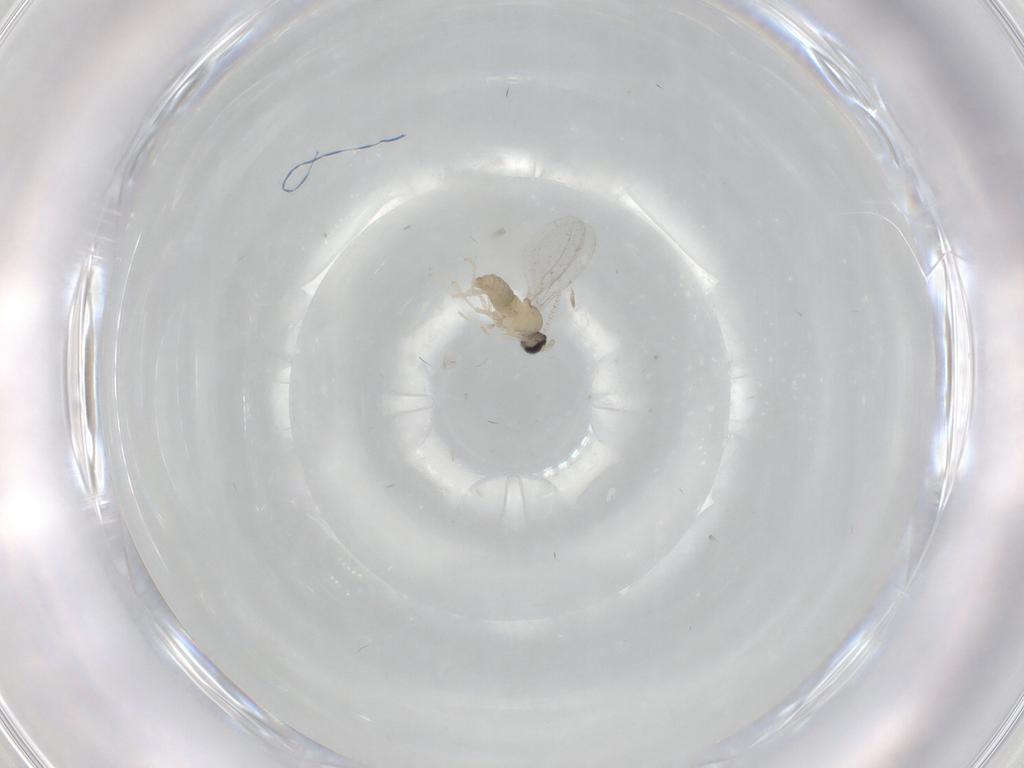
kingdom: Animalia
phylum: Arthropoda
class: Insecta
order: Diptera
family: Cecidomyiidae
